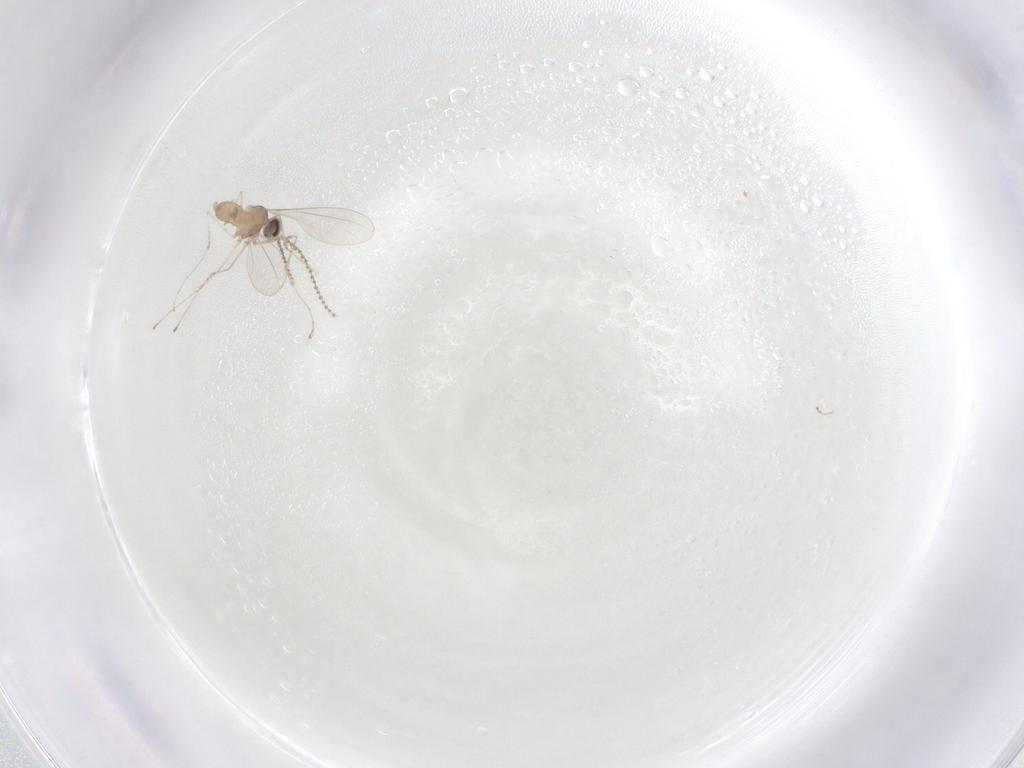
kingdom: Animalia
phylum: Arthropoda
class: Insecta
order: Diptera
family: Cecidomyiidae
